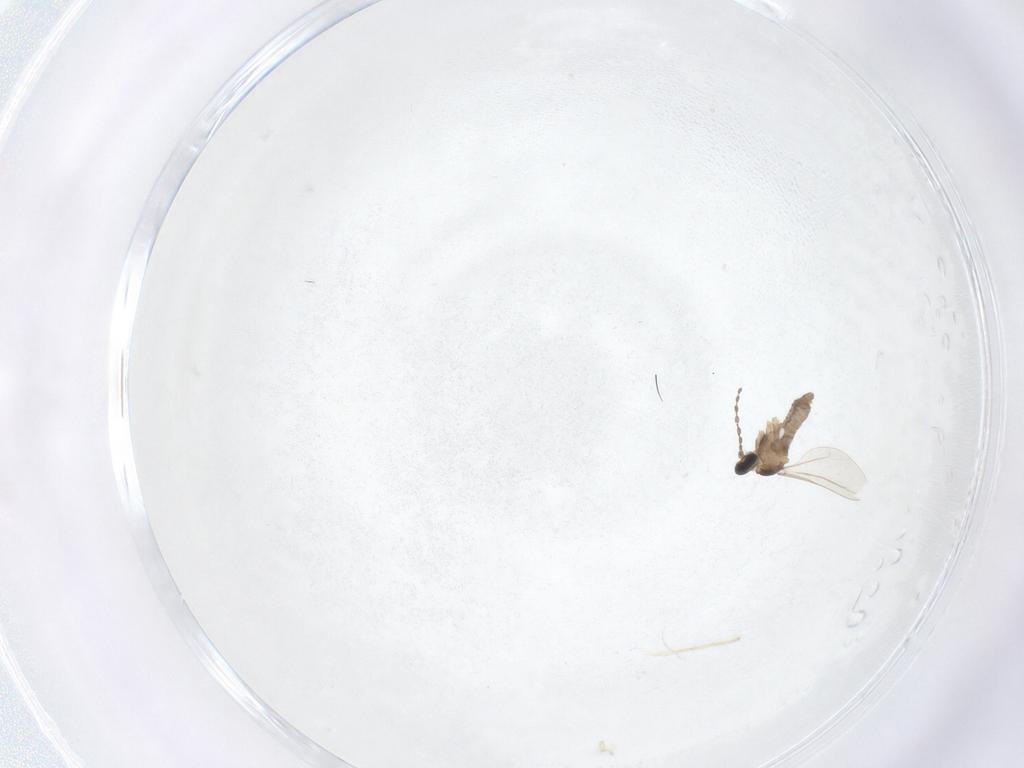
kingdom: Animalia
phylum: Arthropoda
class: Insecta
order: Diptera
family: Cecidomyiidae
